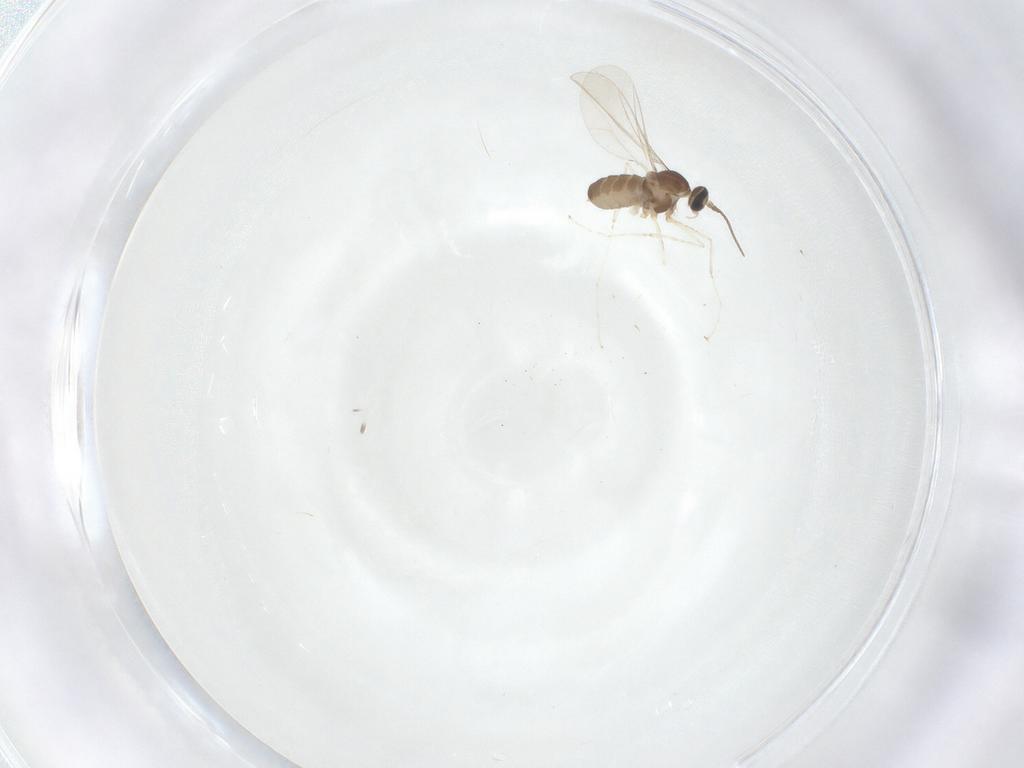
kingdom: Animalia
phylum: Arthropoda
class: Insecta
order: Diptera
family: Cecidomyiidae
